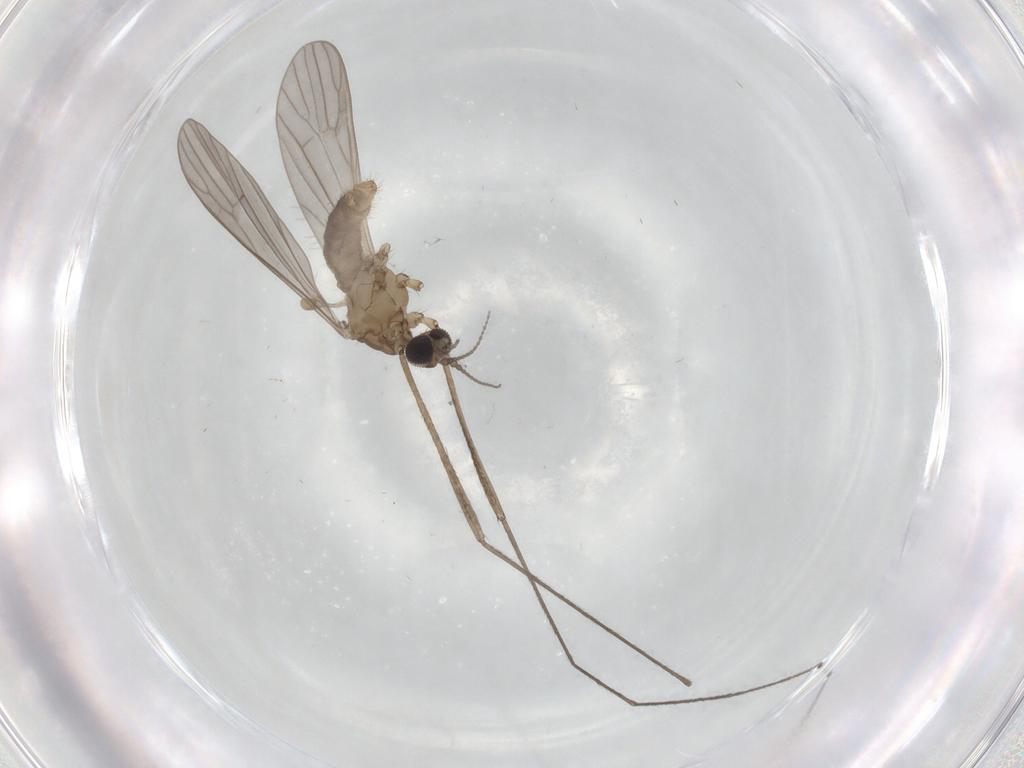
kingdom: Animalia
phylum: Arthropoda
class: Insecta
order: Diptera
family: Limoniidae
